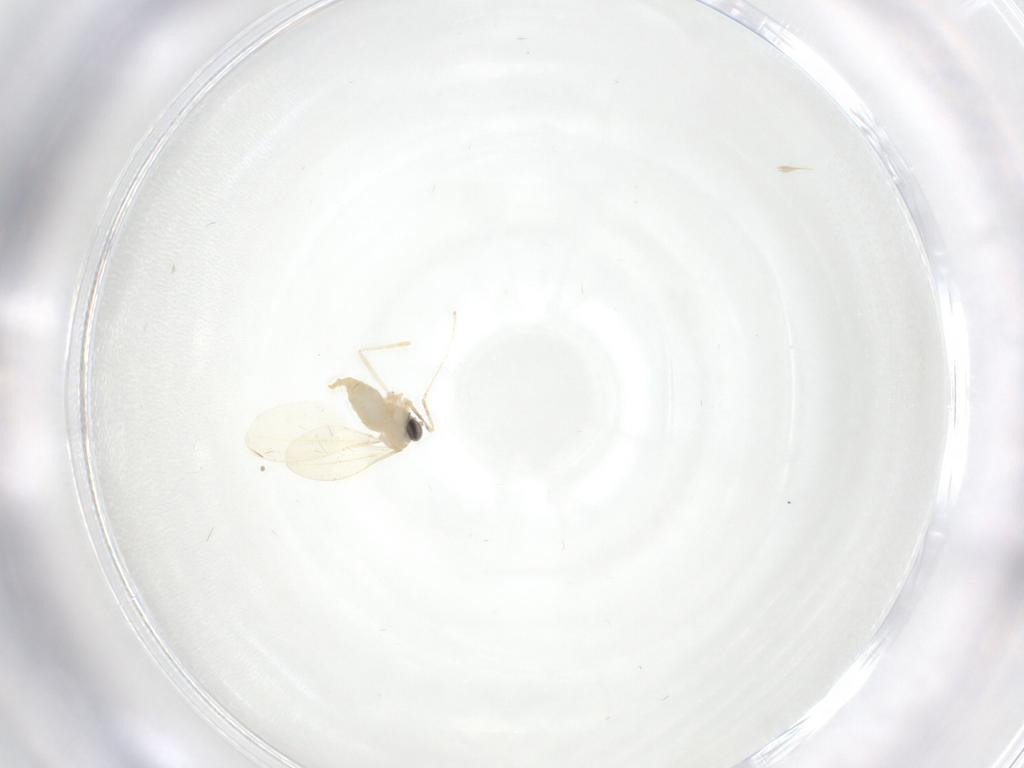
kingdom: Animalia
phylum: Arthropoda
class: Insecta
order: Diptera
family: Cecidomyiidae
